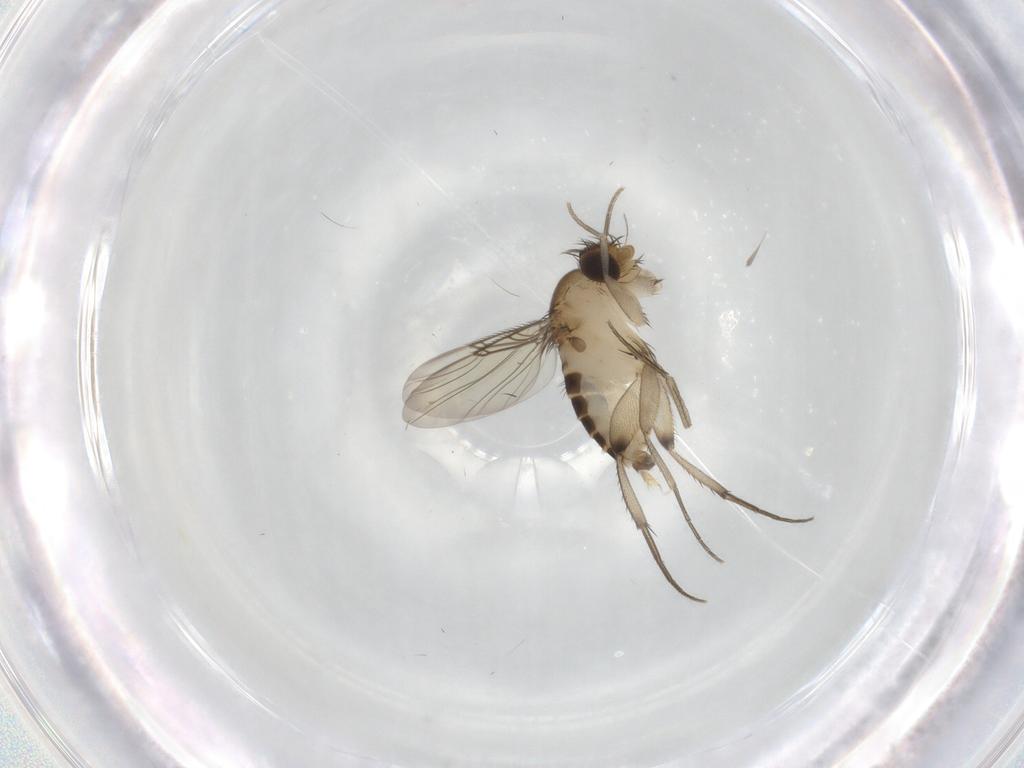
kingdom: Animalia
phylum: Arthropoda
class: Insecta
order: Diptera
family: Phoridae
